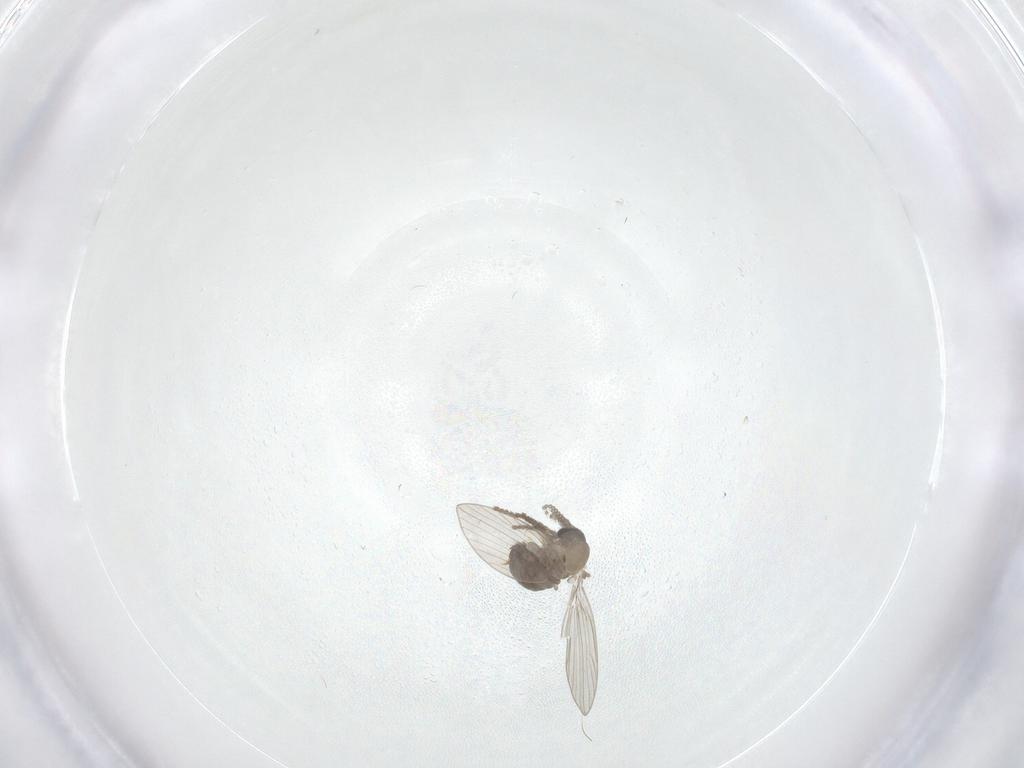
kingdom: Animalia
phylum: Arthropoda
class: Insecta
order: Diptera
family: Psychodidae
